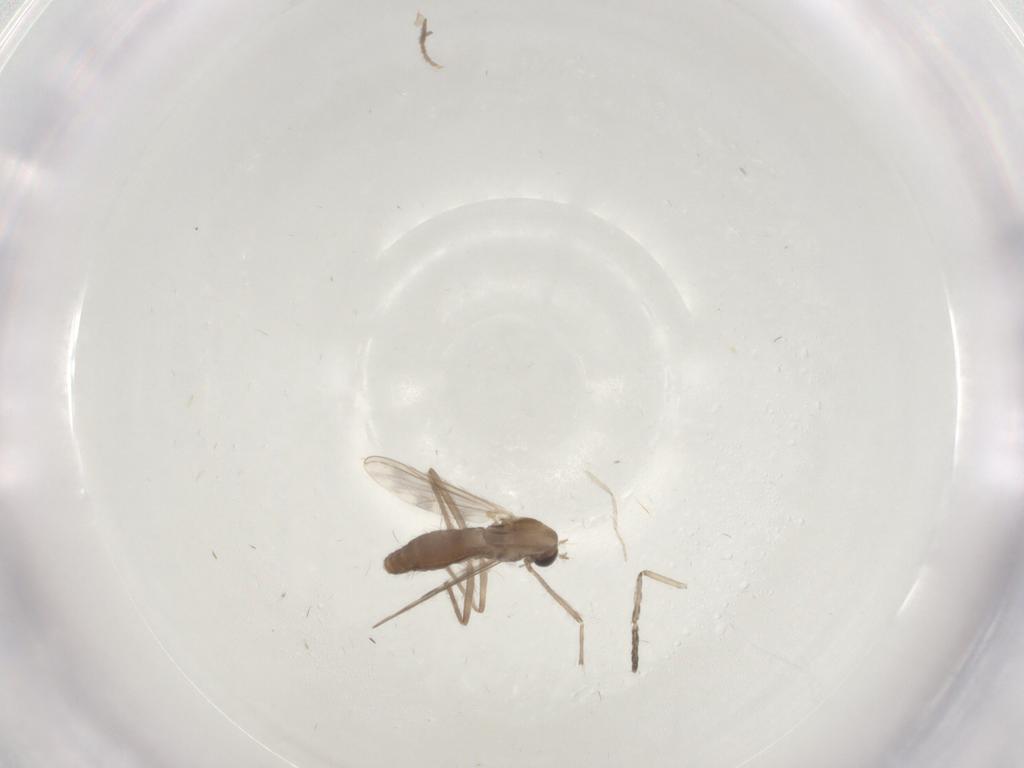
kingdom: Animalia
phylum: Arthropoda
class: Insecta
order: Diptera
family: Cecidomyiidae
